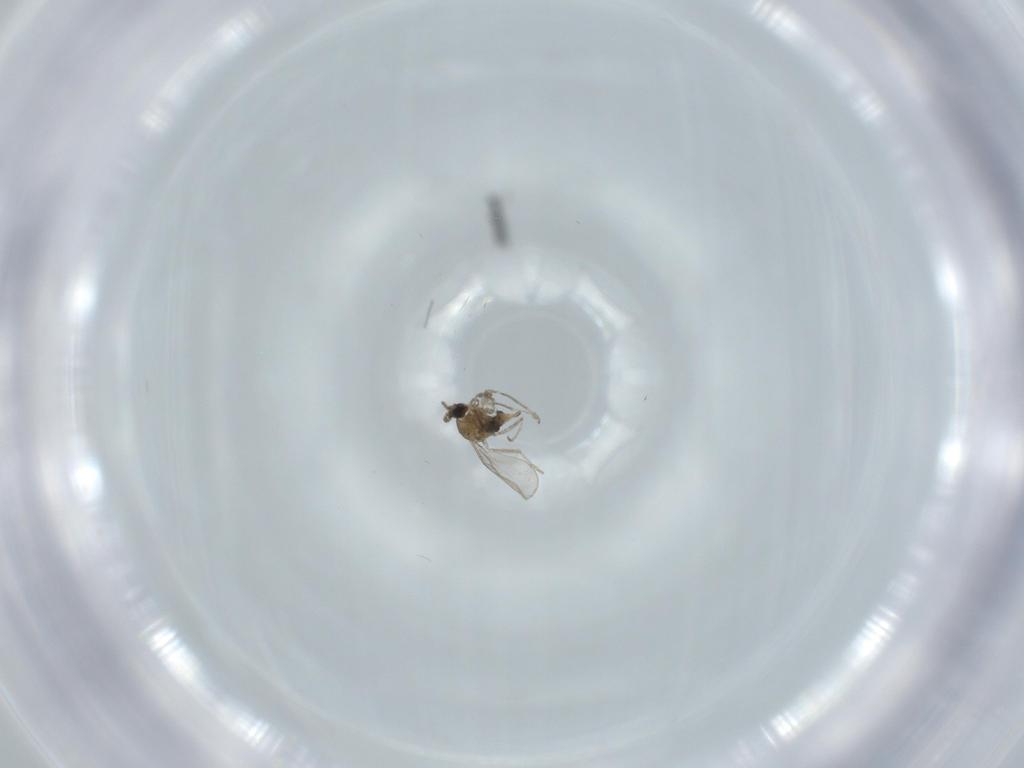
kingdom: Animalia
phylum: Arthropoda
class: Insecta
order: Diptera
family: Cecidomyiidae
